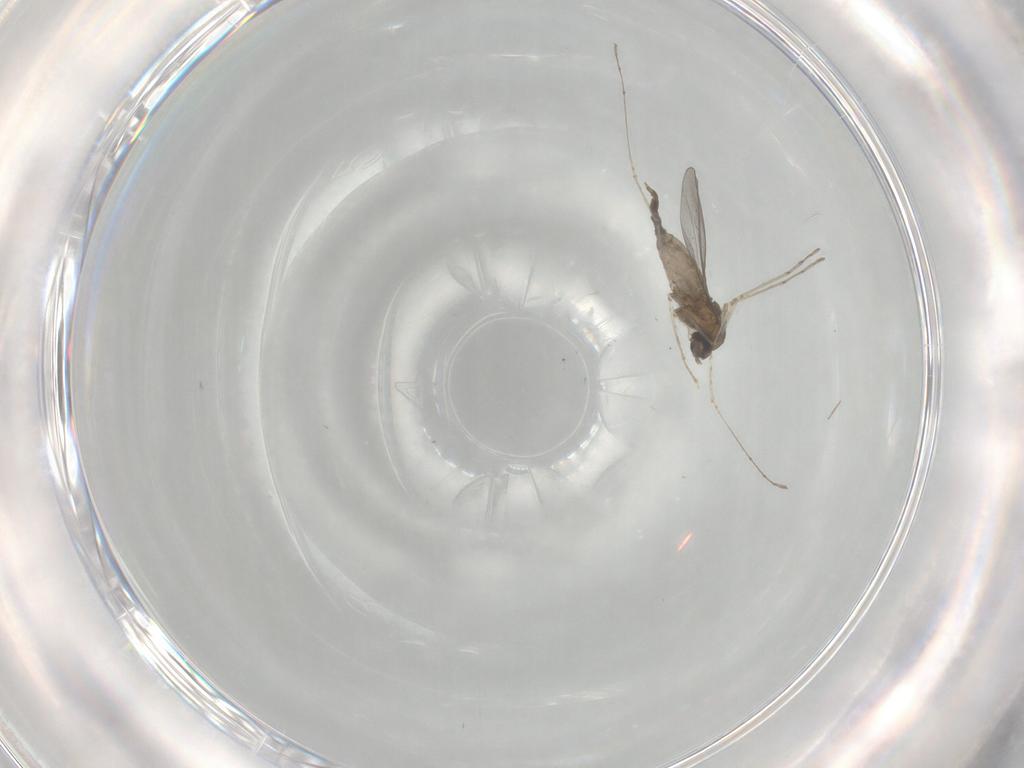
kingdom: Animalia
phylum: Arthropoda
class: Insecta
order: Diptera
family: Cecidomyiidae
